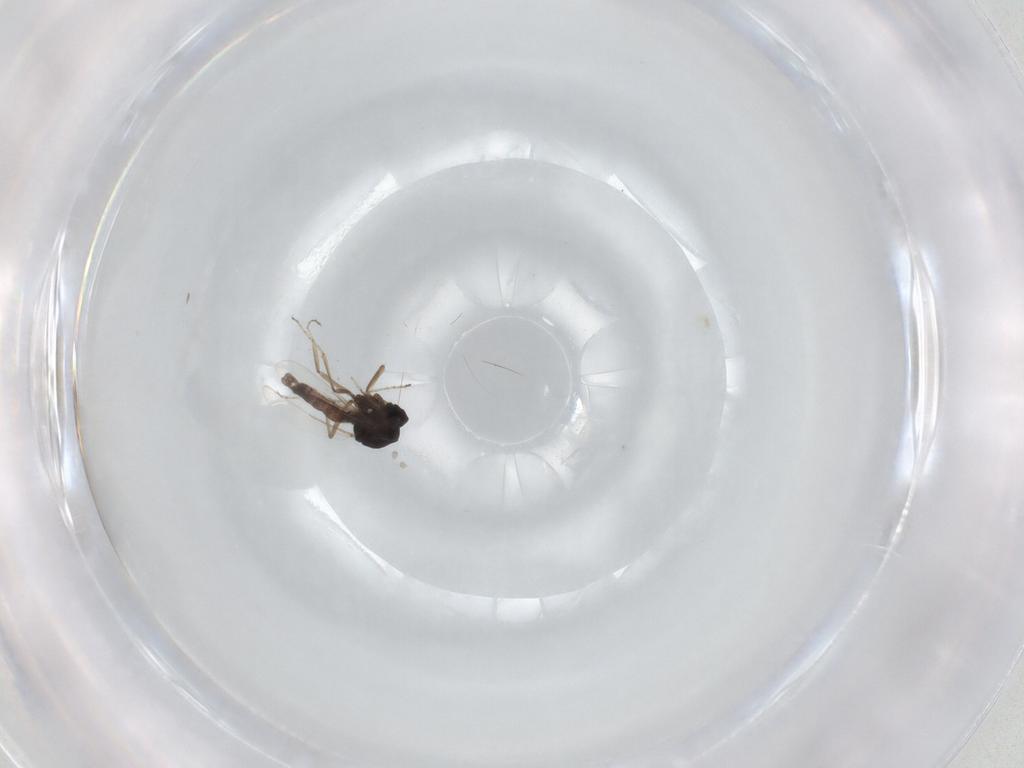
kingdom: Animalia
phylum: Arthropoda
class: Insecta
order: Diptera
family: Ceratopogonidae
